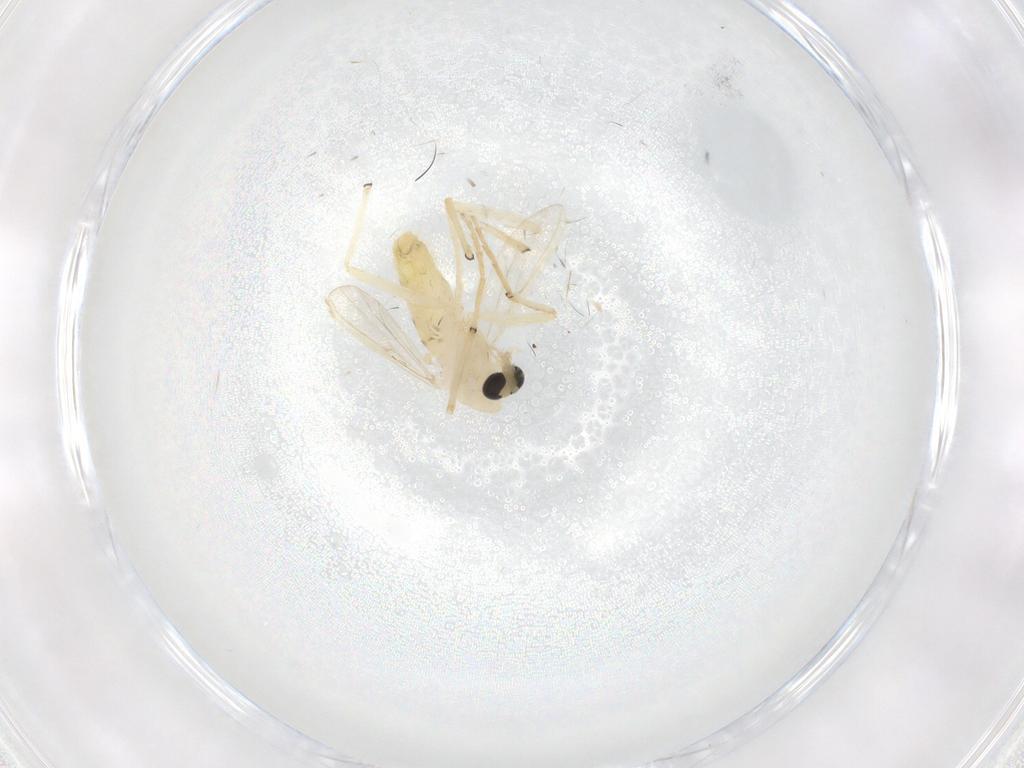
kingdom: Animalia
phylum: Arthropoda
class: Insecta
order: Diptera
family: Chironomidae
